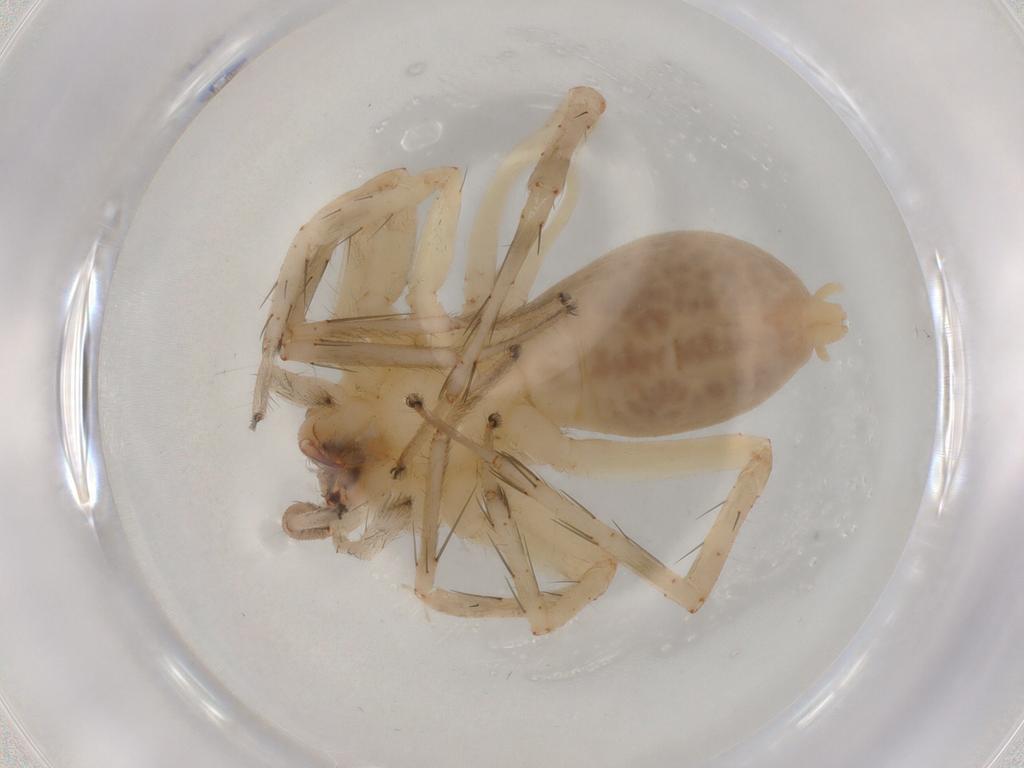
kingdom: Animalia
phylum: Arthropoda
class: Arachnida
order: Araneae
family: Anyphaenidae
